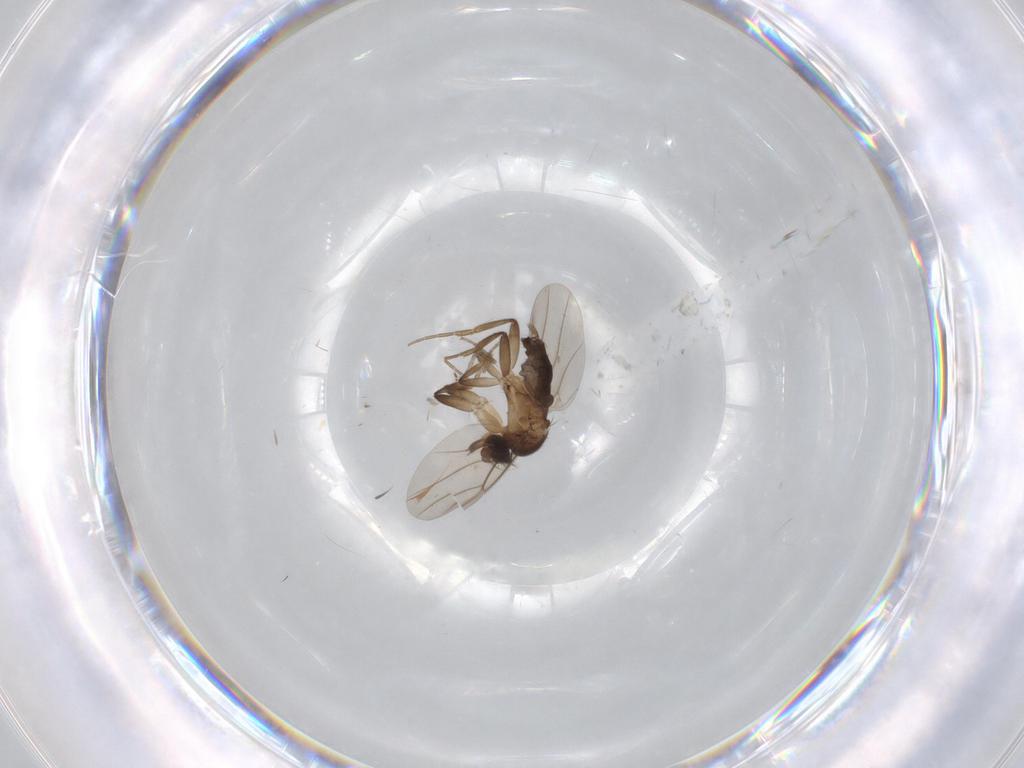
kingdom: Animalia
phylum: Arthropoda
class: Insecta
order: Diptera
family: Phoridae
